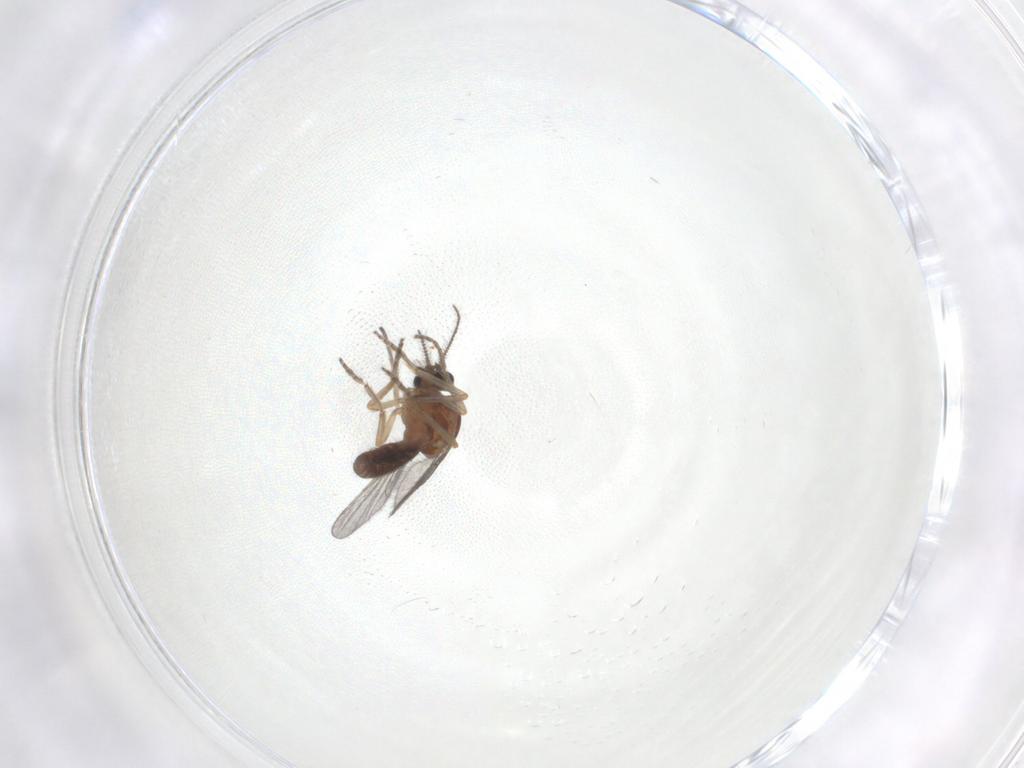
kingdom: Animalia
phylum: Arthropoda
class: Insecta
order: Diptera
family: Ceratopogonidae
